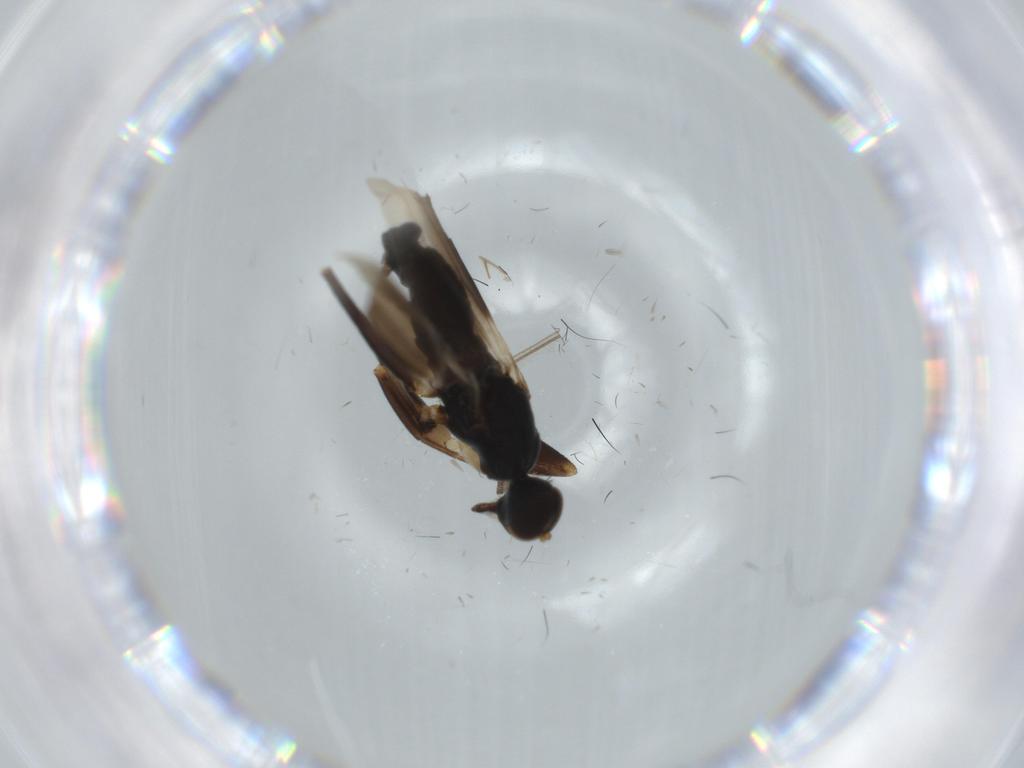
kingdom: Animalia
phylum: Arthropoda
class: Insecta
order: Diptera
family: Hybotidae
